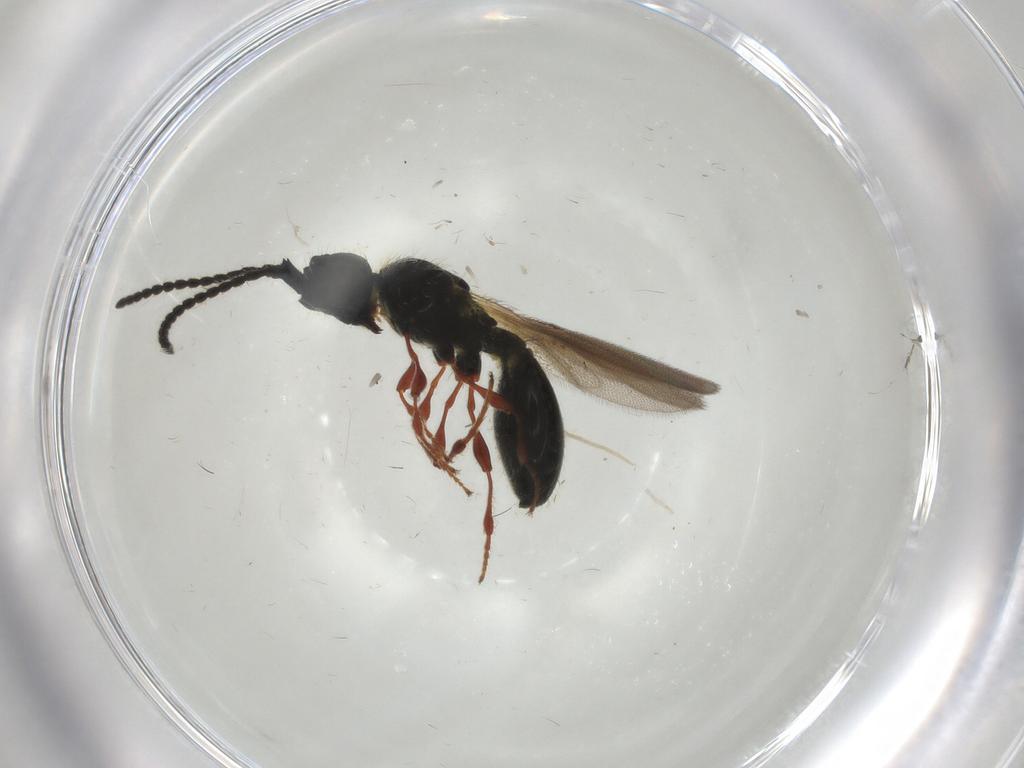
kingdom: Animalia
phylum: Arthropoda
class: Insecta
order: Hymenoptera
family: Diapriidae
